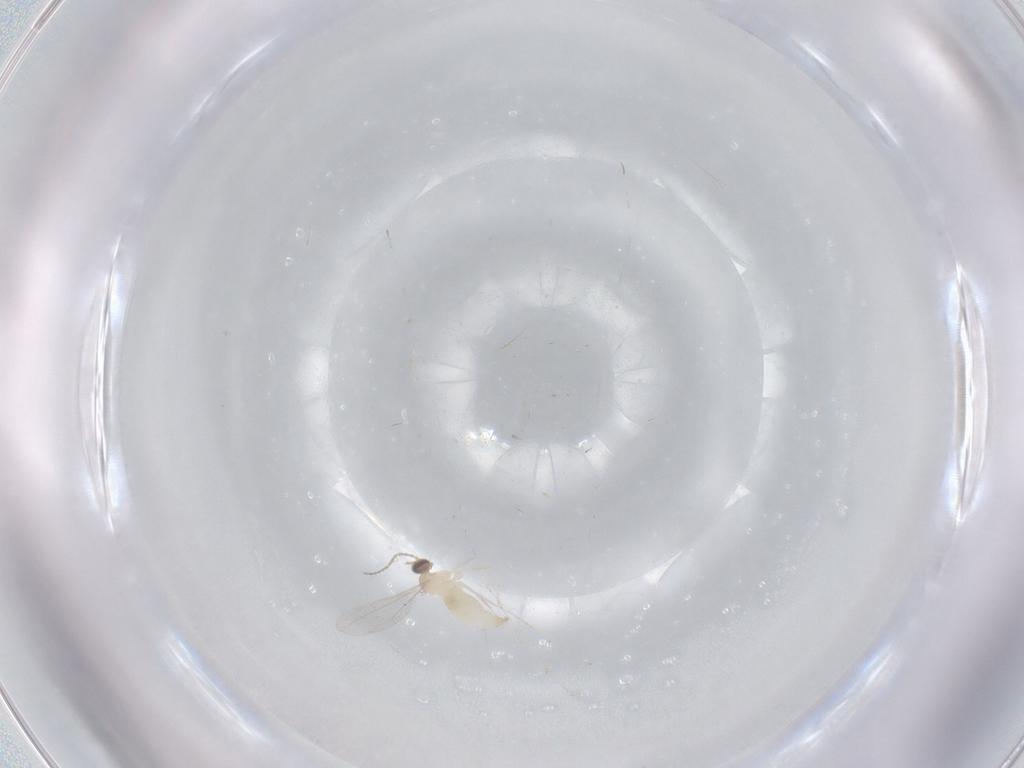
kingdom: Animalia
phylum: Arthropoda
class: Insecta
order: Diptera
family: Cecidomyiidae
